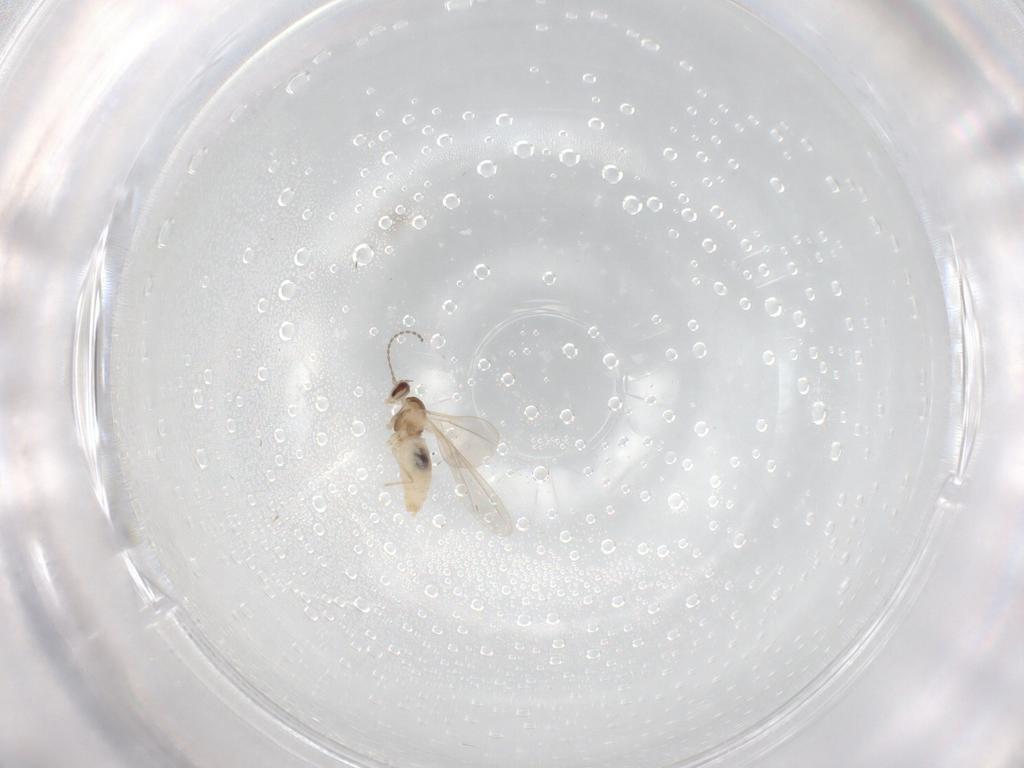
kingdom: Animalia
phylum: Arthropoda
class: Insecta
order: Diptera
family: Cecidomyiidae
